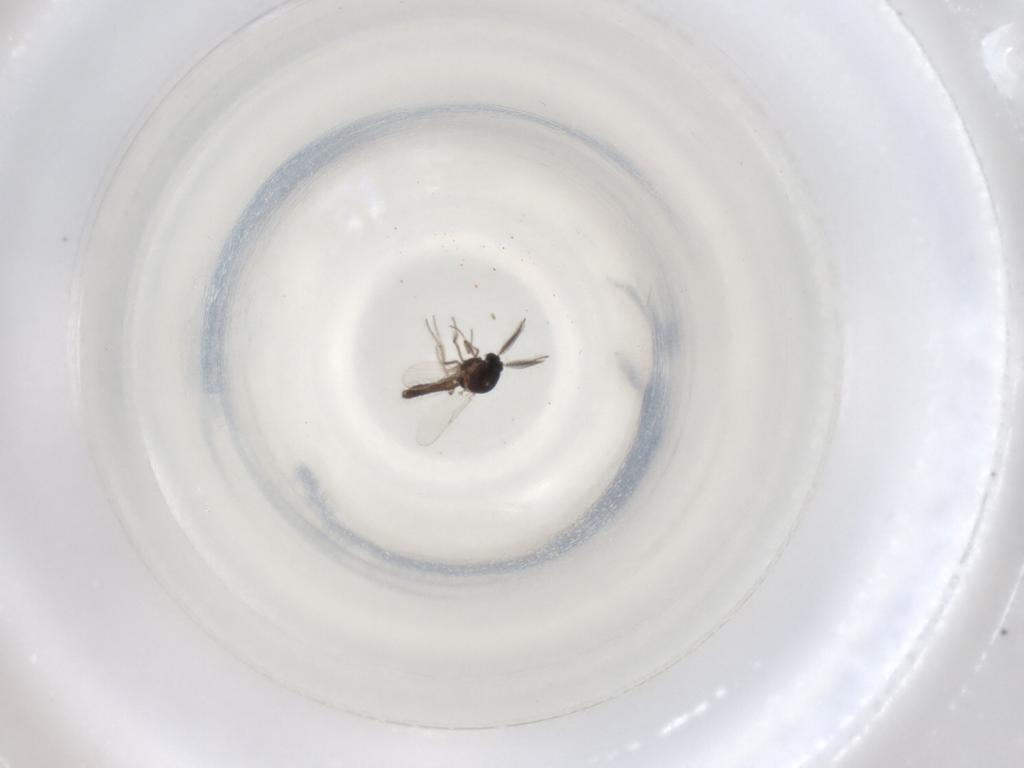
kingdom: Animalia
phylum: Arthropoda
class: Insecta
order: Diptera
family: Ceratopogonidae
